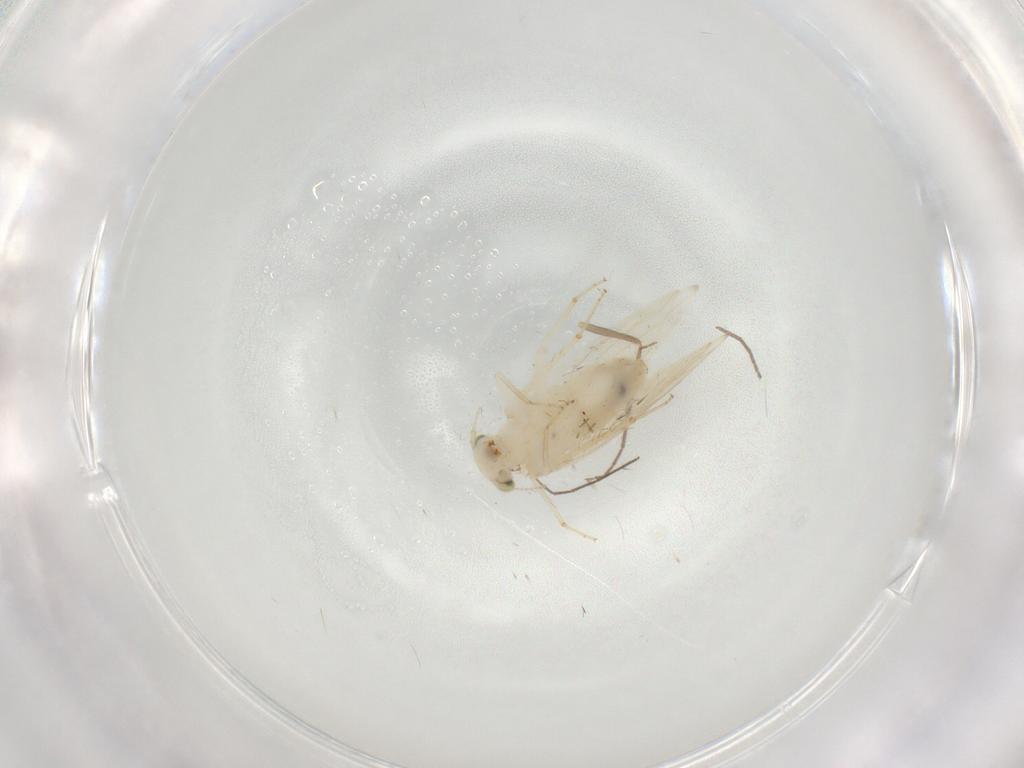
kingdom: Animalia
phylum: Arthropoda
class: Insecta
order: Psocodea
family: Lepidopsocidae
